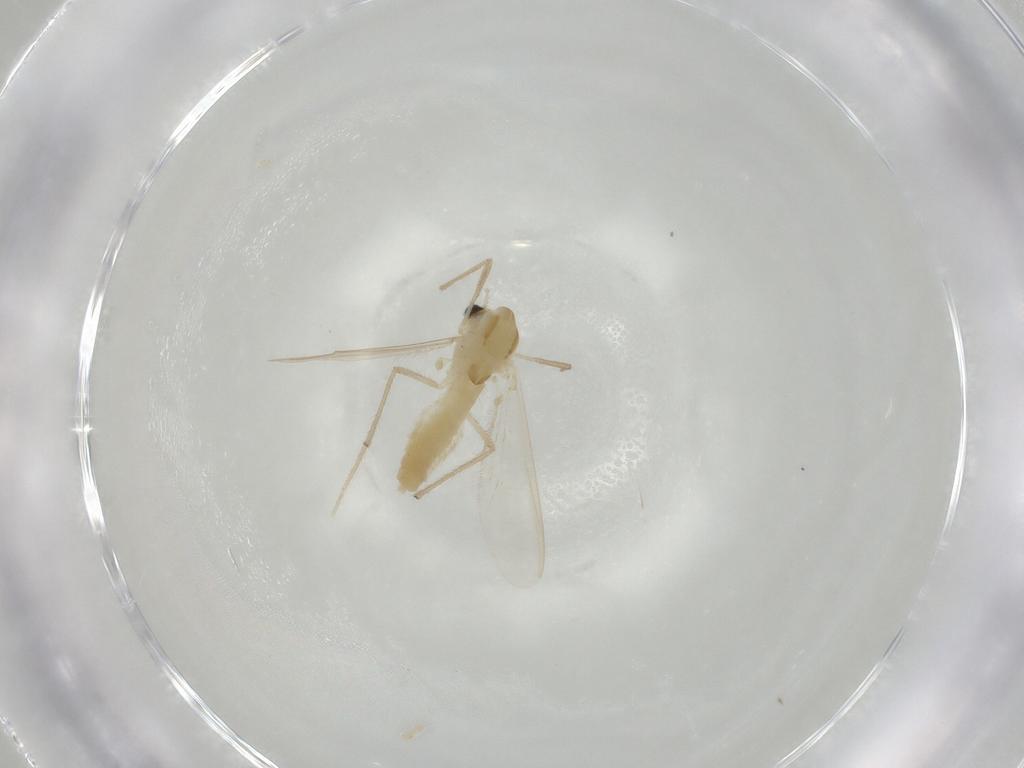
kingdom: Animalia
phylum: Arthropoda
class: Insecta
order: Diptera
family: Chironomidae
